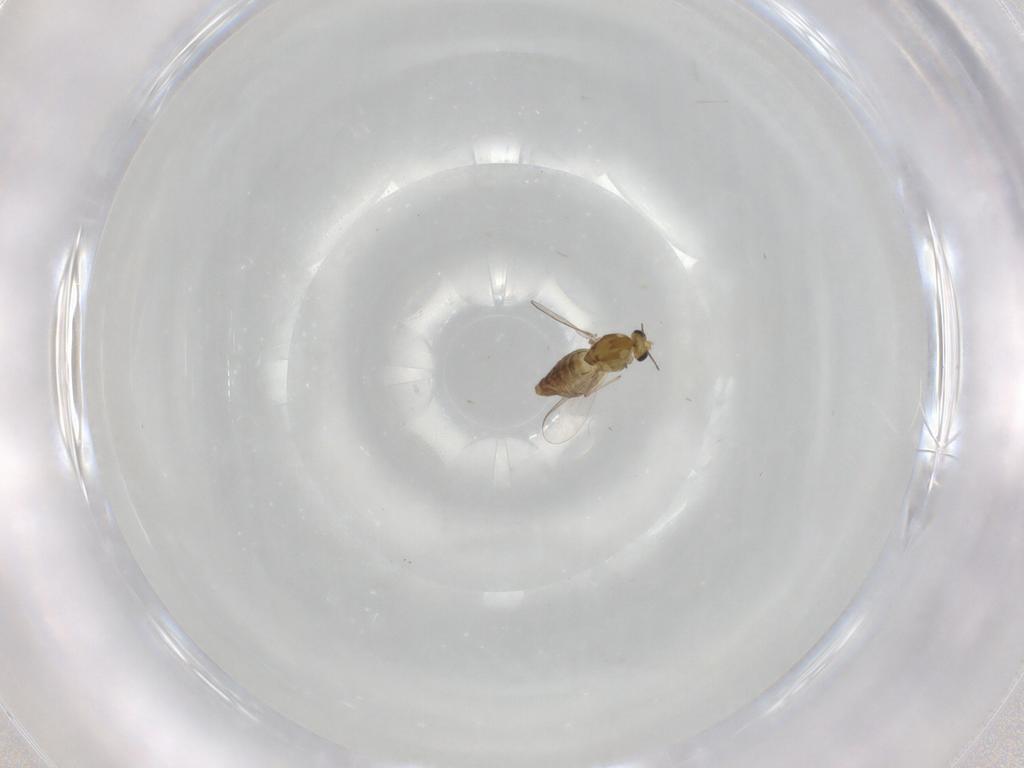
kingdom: Animalia
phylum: Arthropoda
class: Insecta
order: Diptera
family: Chironomidae
